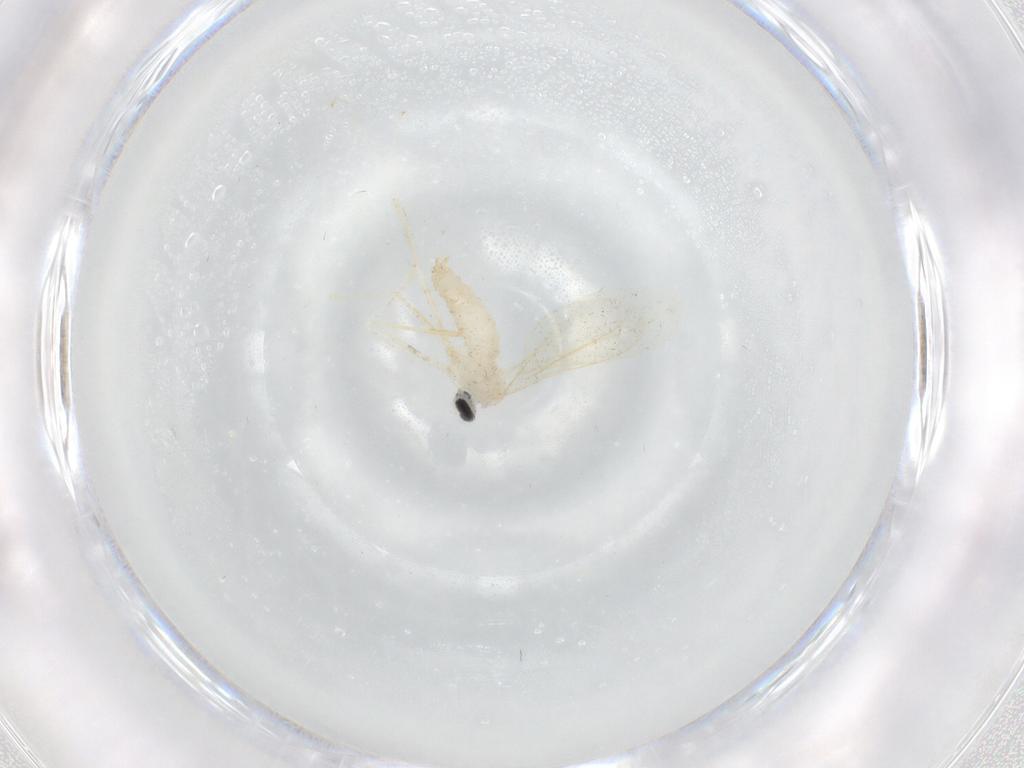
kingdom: Animalia
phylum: Arthropoda
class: Insecta
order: Diptera
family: Cecidomyiidae
